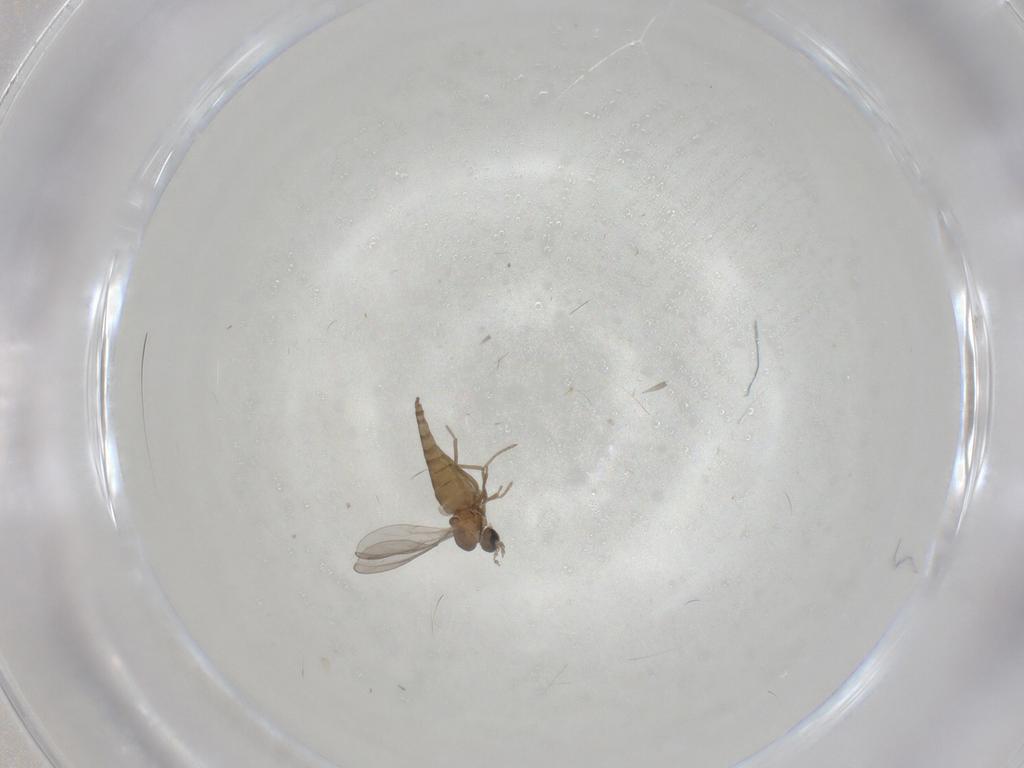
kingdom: Animalia
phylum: Arthropoda
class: Insecta
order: Diptera
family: Cecidomyiidae
